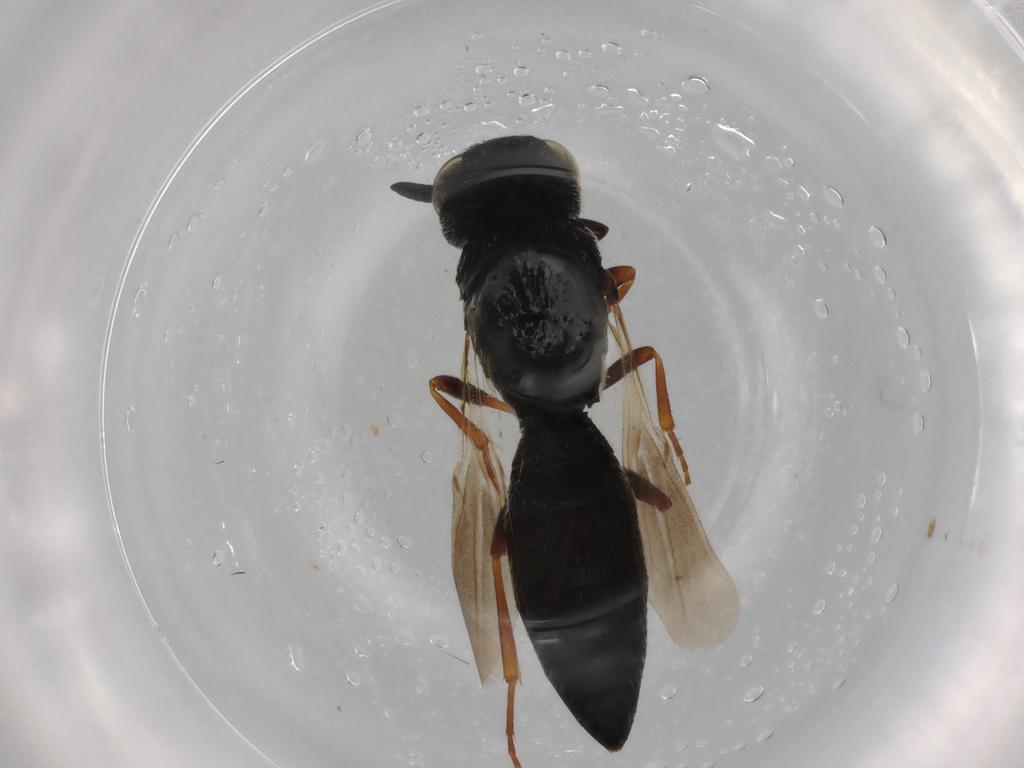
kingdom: Animalia
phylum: Arthropoda
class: Insecta
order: Hymenoptera
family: Scelionidae
